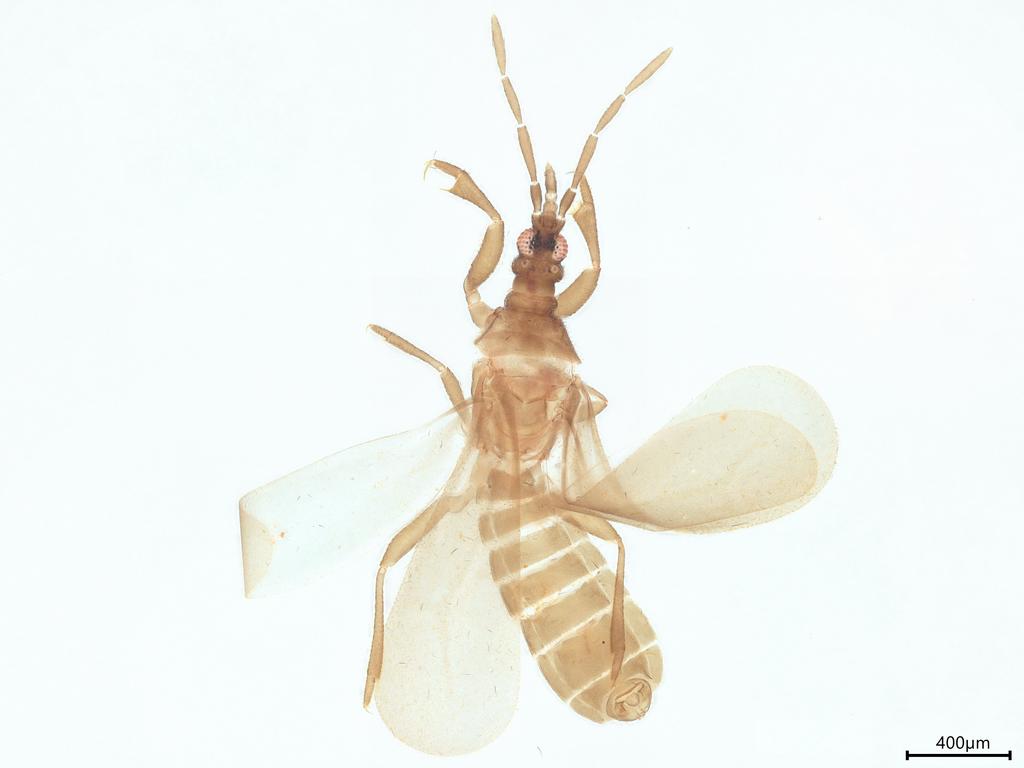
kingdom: Animalia
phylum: Arthropoda
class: Insecta
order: Hemiptera
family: Enicocephalidae
